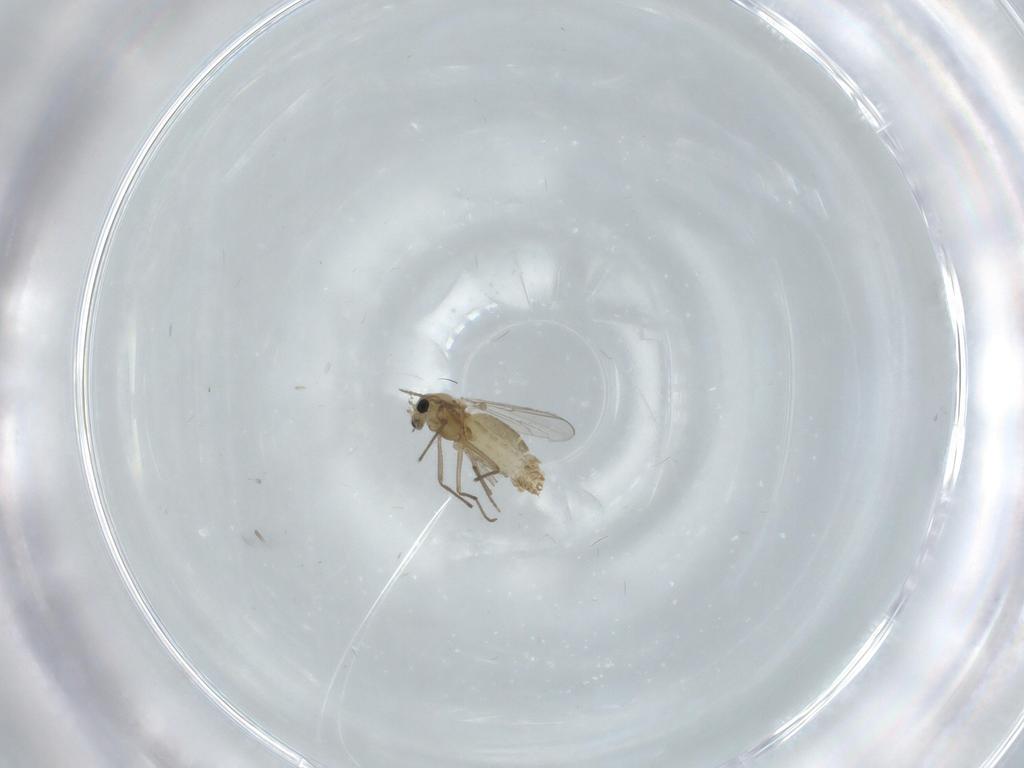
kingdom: Animalia
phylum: Arthropoda
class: Insecta
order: Diptera
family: Chironomidae
